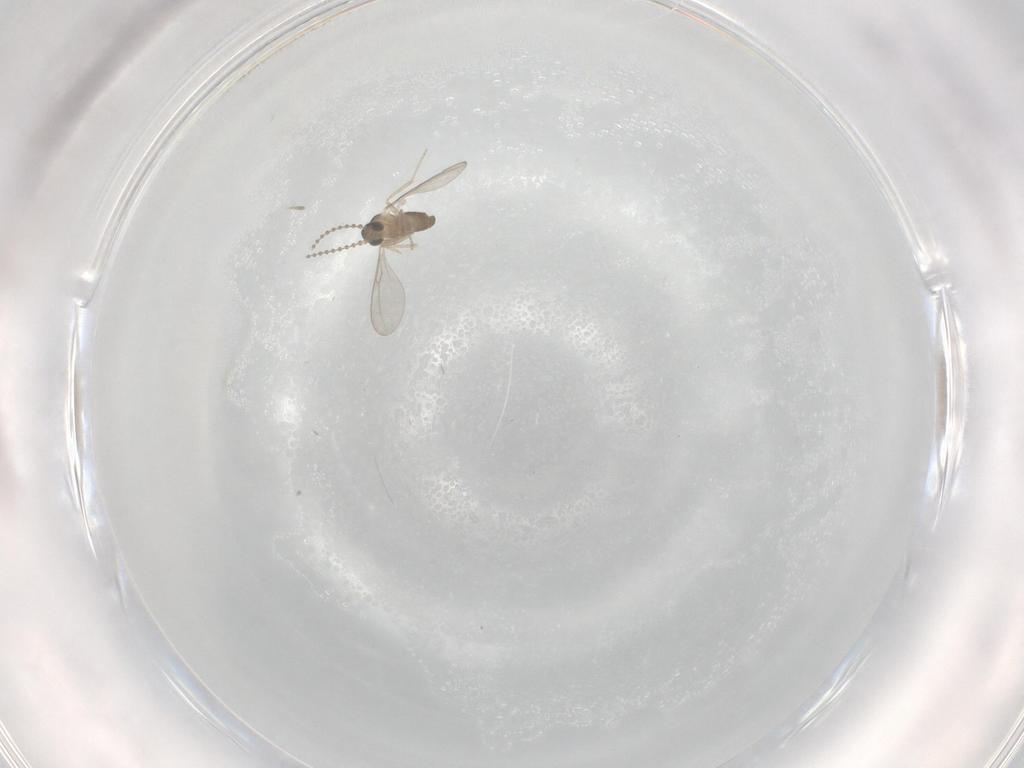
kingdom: Animalia
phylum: Arthropoda
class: Insecta
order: Diptera
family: Cecidomyiidae
